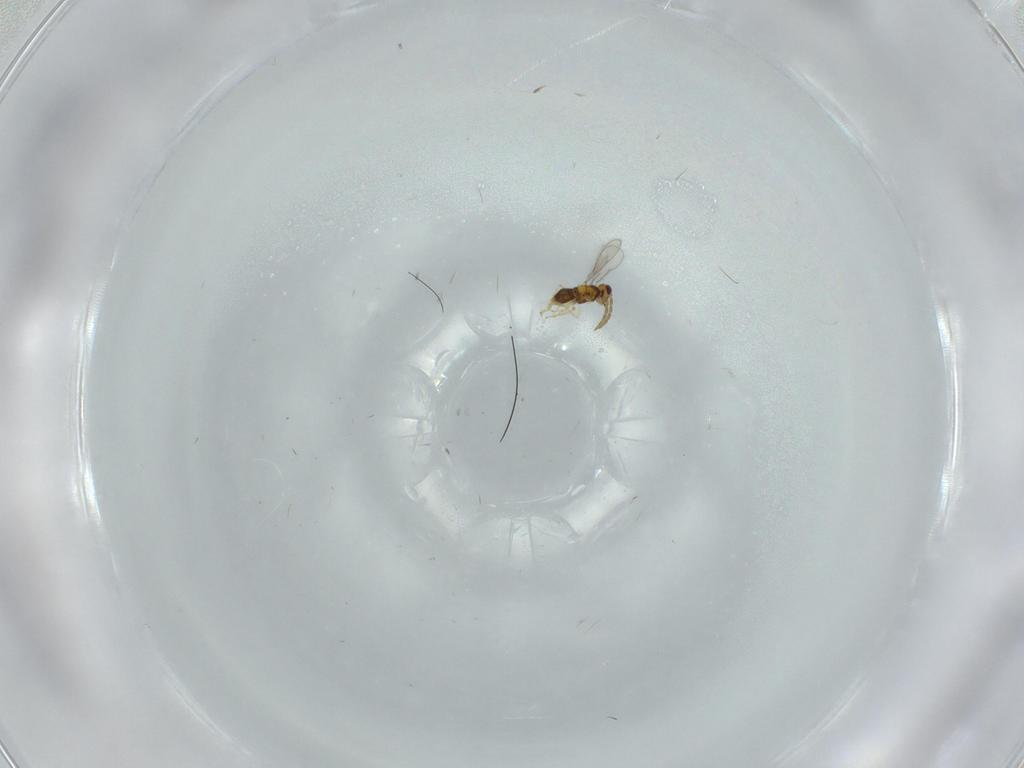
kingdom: Animalia
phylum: Arthropoda
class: Insecta
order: Hymenoptera
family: Aphelinidae
